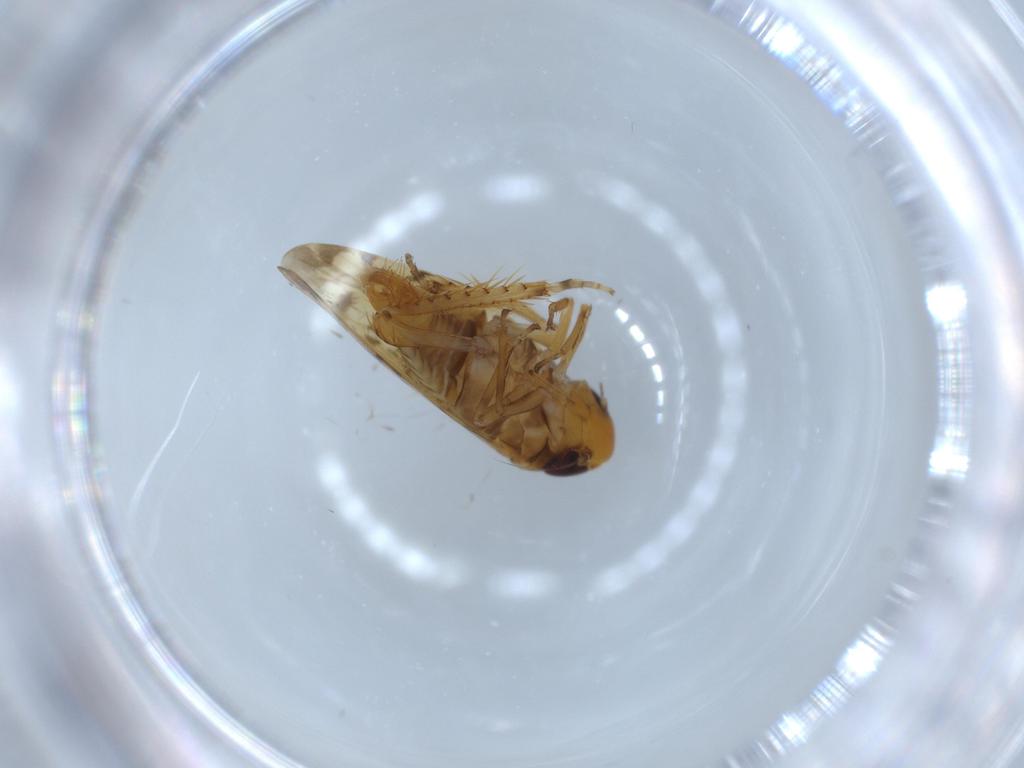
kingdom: Animalia
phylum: Arthropoda
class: Insecta
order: Hemiptera
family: Cicadellidae
